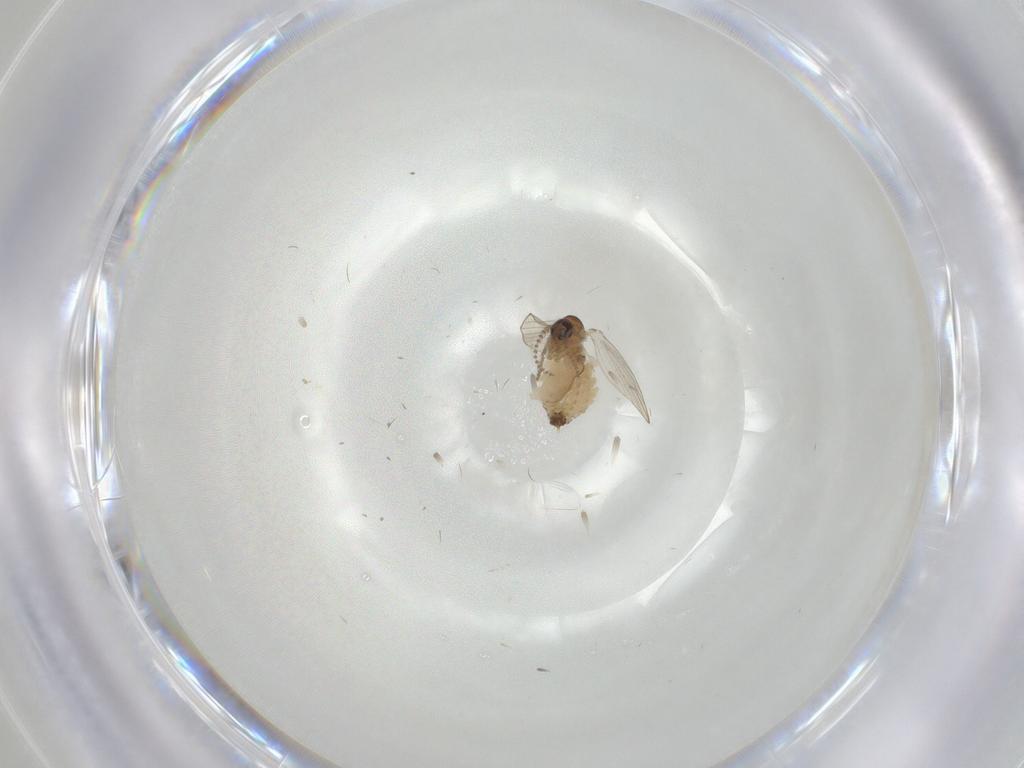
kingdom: Animalia
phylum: Arthropoda
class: Insecta
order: Diptera
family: Psychodidae
